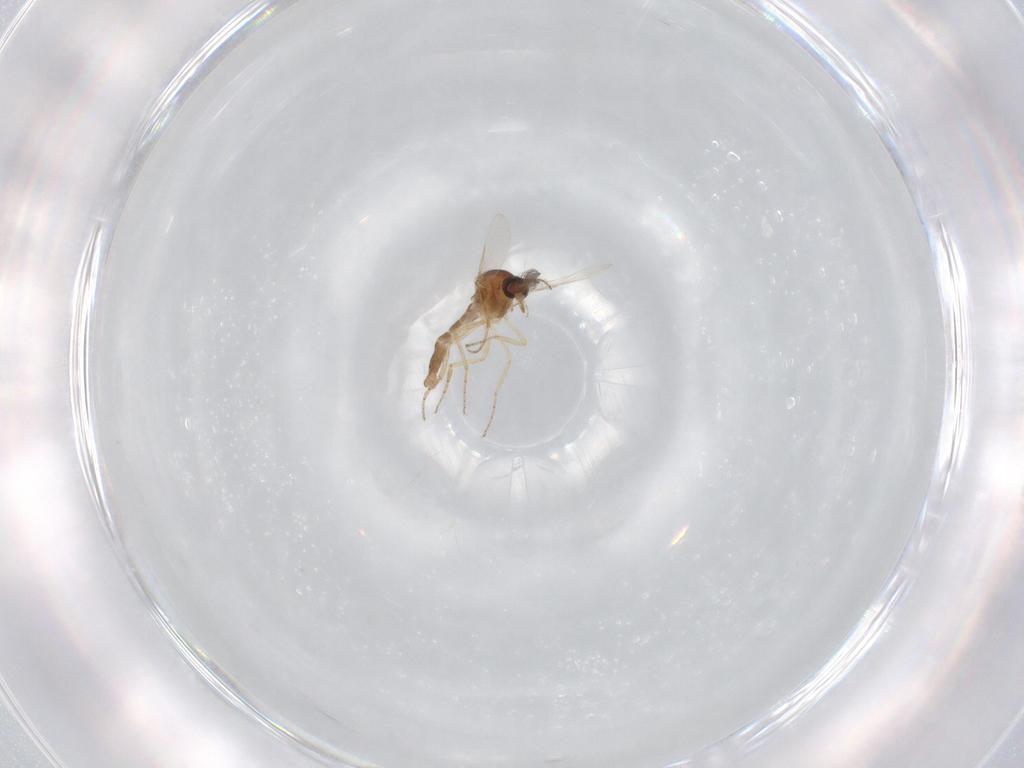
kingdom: Animalia
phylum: Arthropoda
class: Insecta
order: Diptera
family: Ceratopogonidae
